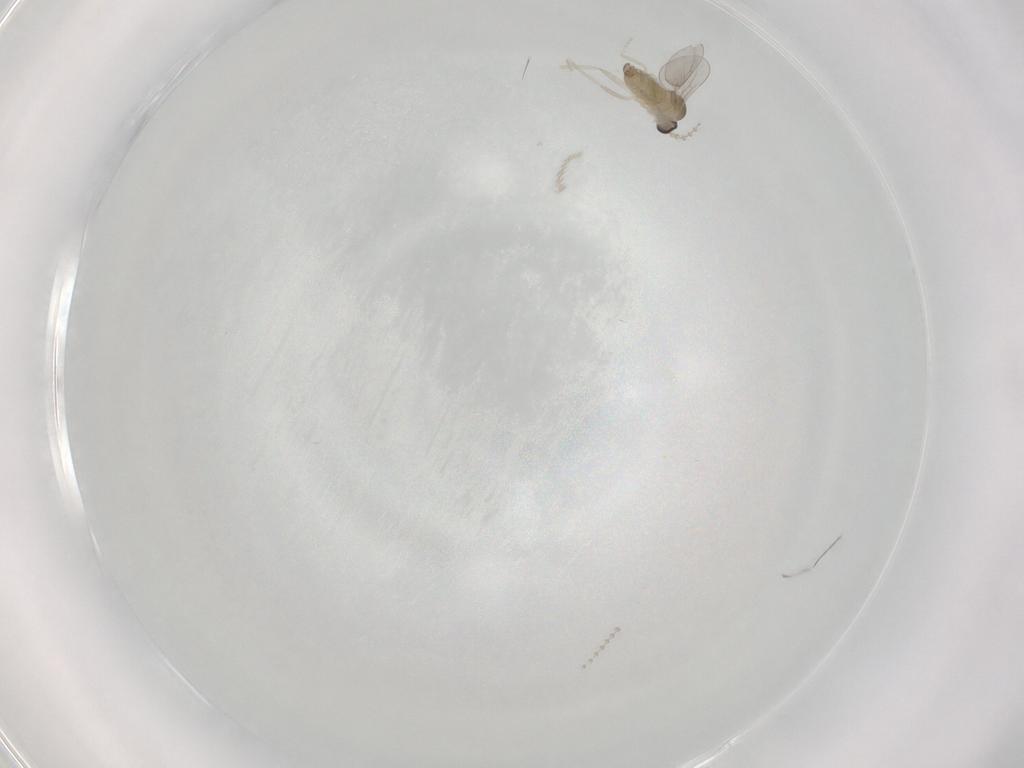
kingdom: Animalia
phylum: Arthropoda
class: Insecta
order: Diptera
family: Cecidomyiidae
